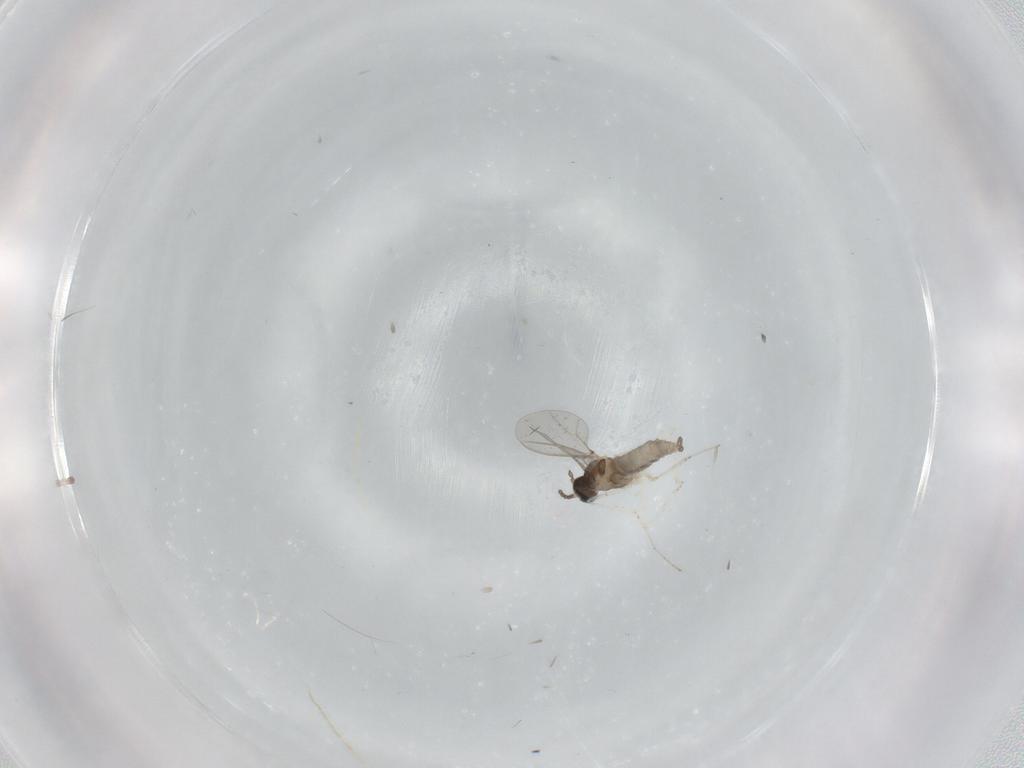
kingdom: Animalia
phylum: Arthropoda
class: Insecta
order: Diptera
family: Cecidomyiidae
